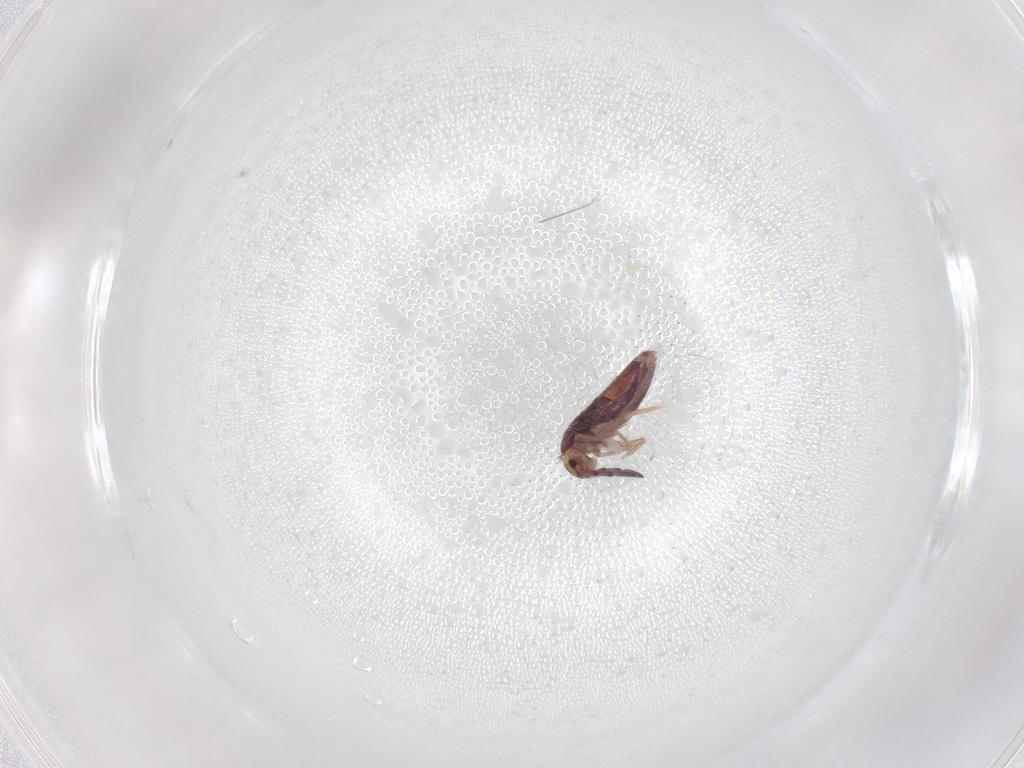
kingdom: Animalia
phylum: Arthropoda
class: Collembola
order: Entomobryomorpha
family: Entomobryidae
